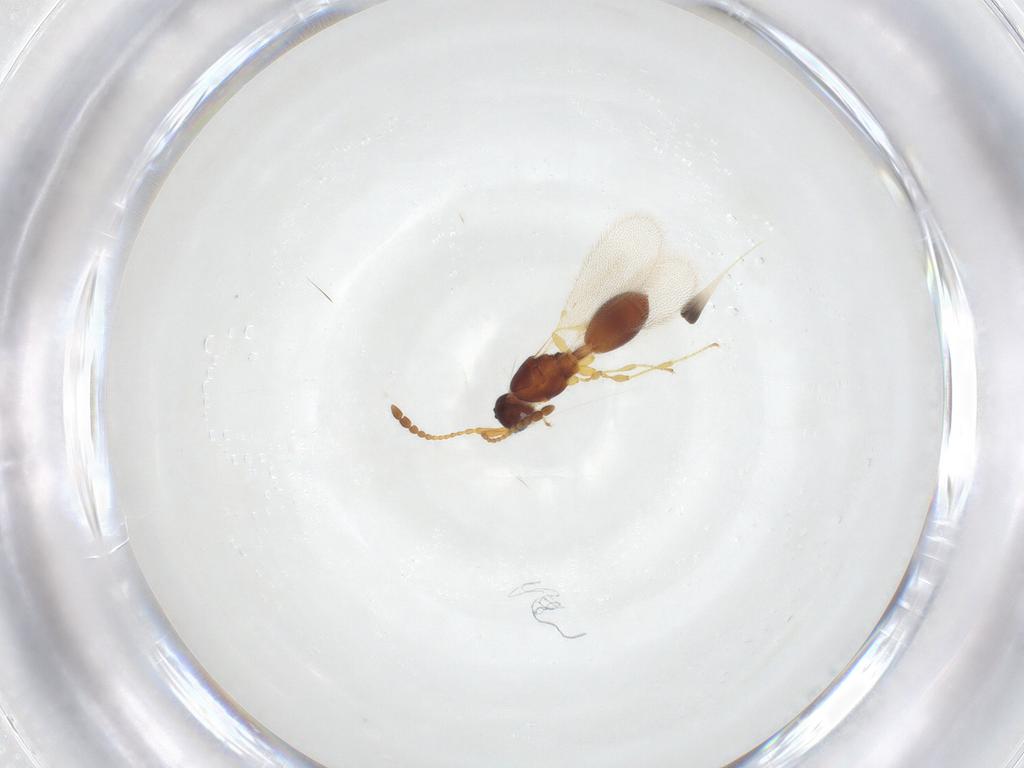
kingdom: Animalia
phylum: Arthropoda
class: Insecta
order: Hymenoptera
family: Diapriidae
